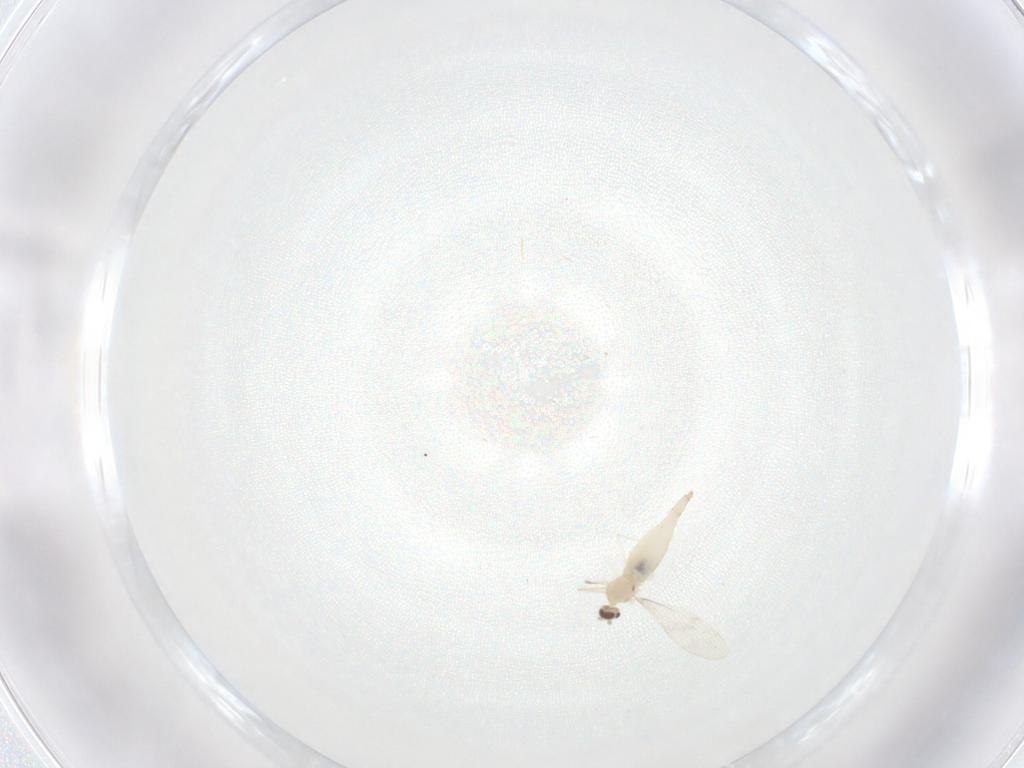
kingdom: Animalia
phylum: Arthropoda
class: Insecta
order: Diptera
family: Cecidomyiidae
